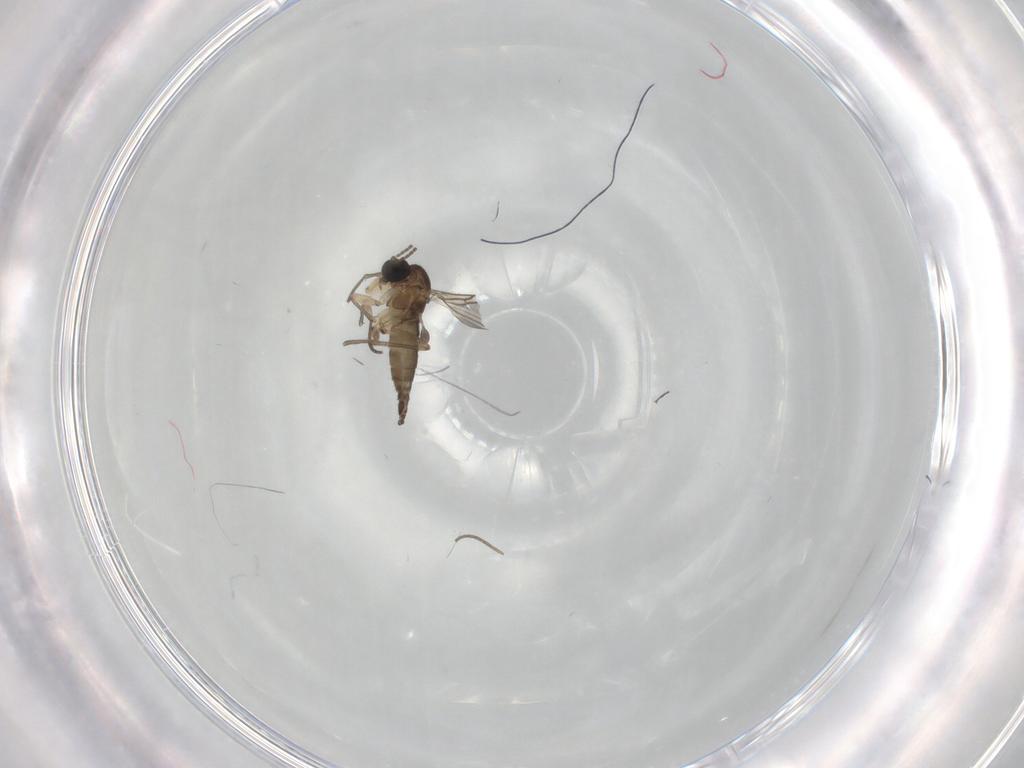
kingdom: Animalia
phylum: Arthropoda
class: Insecta
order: Diptera
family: Sciaridae
